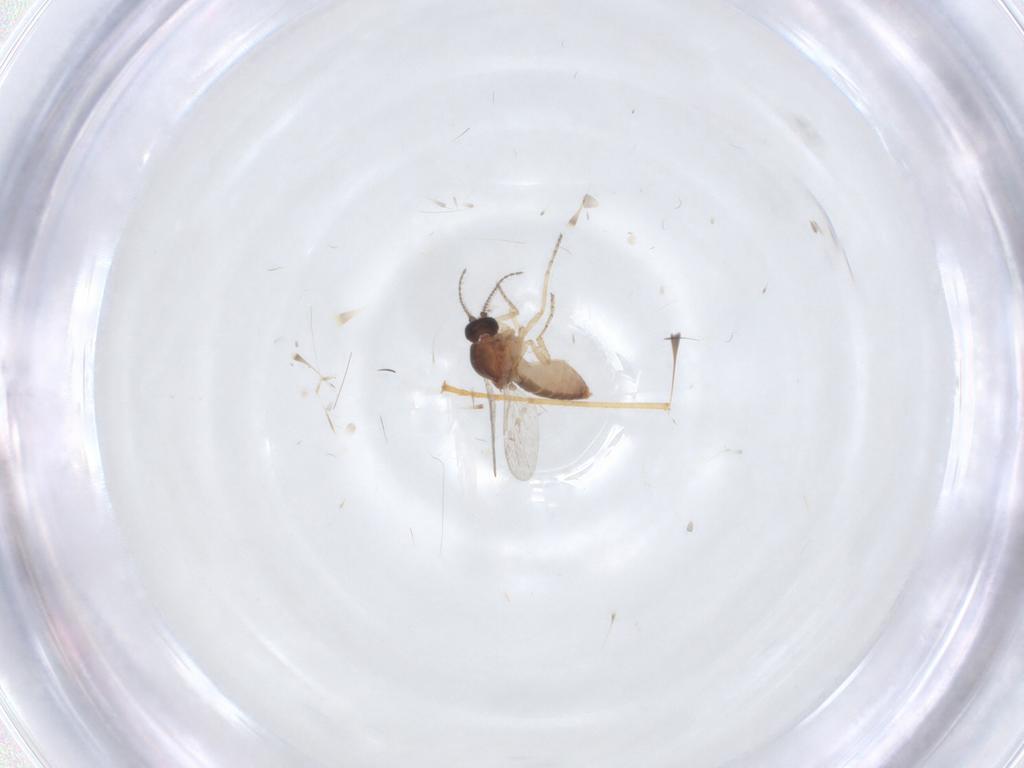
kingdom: Animalia
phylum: Arthropoda
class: Insecta
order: Diptera
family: Ceratopogonidae
